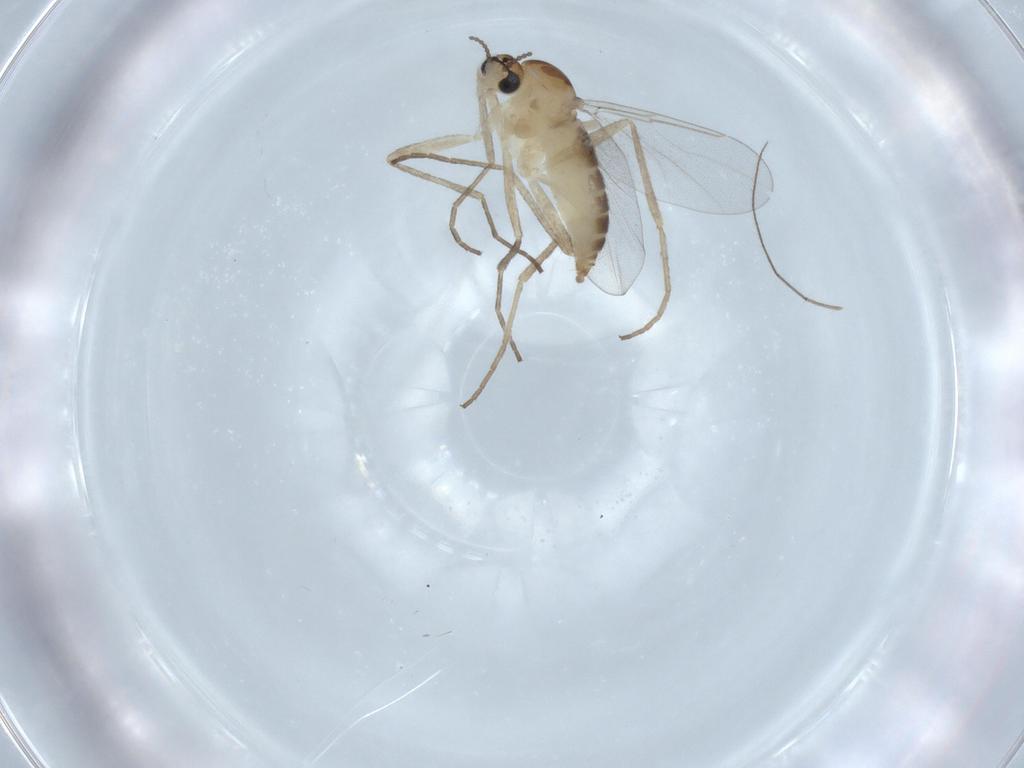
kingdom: Animalia
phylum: Arthropoda
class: Insecta
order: Diptera
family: Cecidomyiidae
